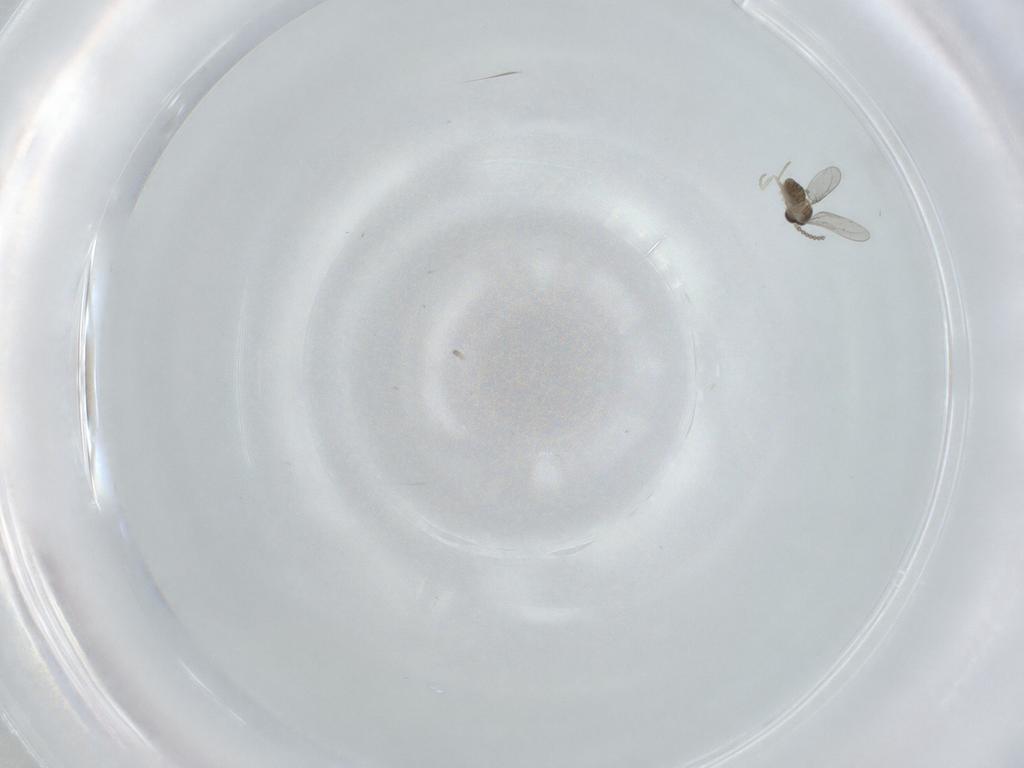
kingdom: Animalia
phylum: Arthropoda
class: Insecta
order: Diptera
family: Cecidomyiidae
